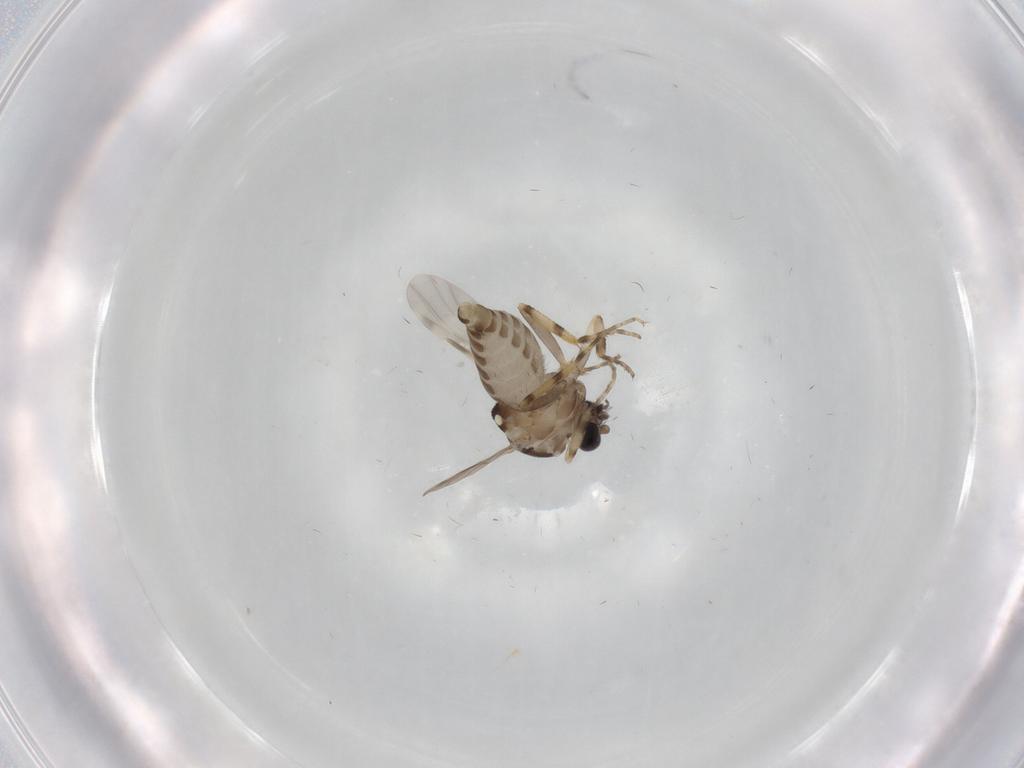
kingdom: Animalia
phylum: Arthropoda
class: Insecta
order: Diptera
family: Ceratopogonidae
